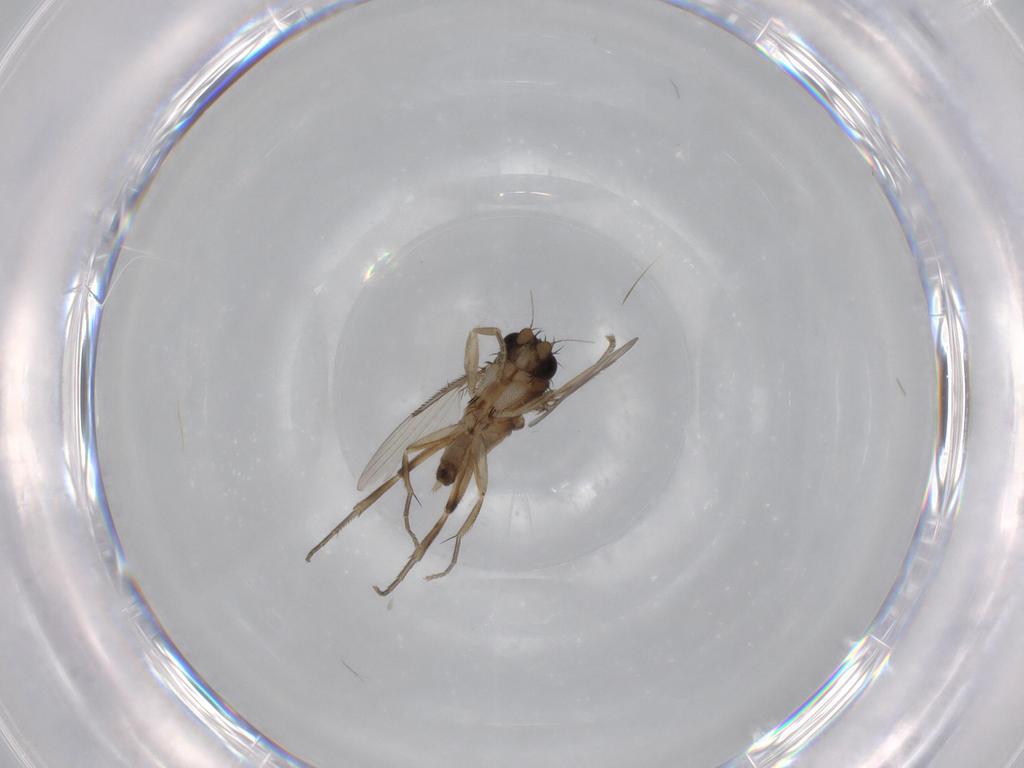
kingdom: Animalia
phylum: Arthropoda
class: Insecta
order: Diptera
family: Phoridae
